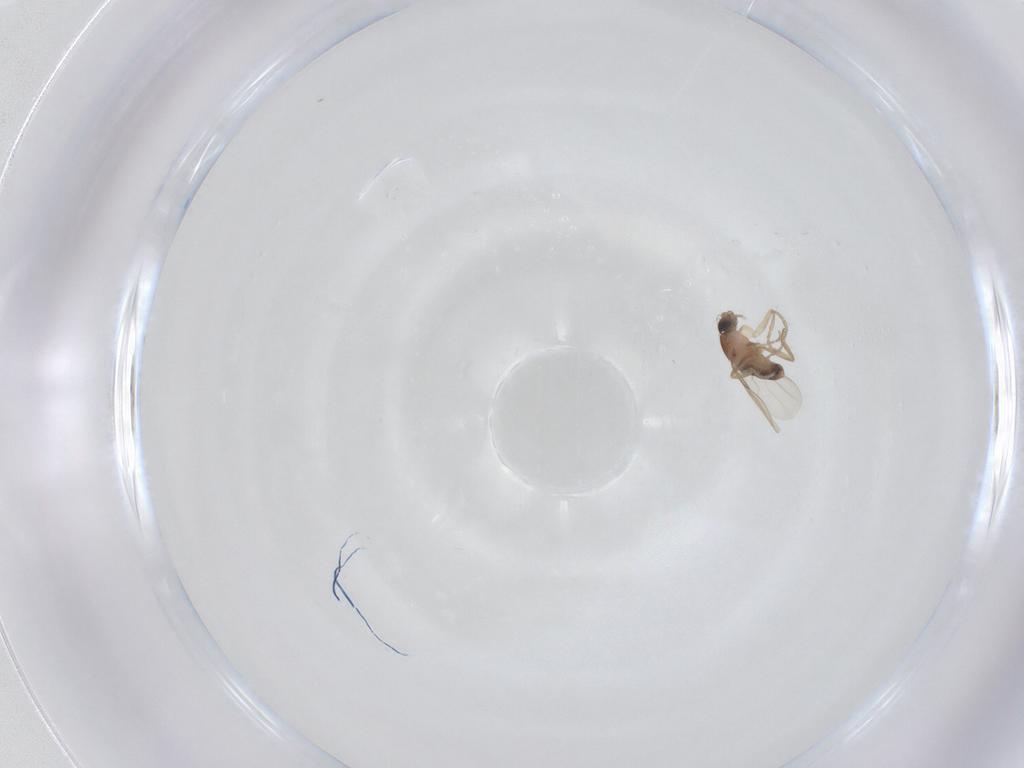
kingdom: Animalia
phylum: Arthropoda
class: Insecta
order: Diptera
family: Phoridae
